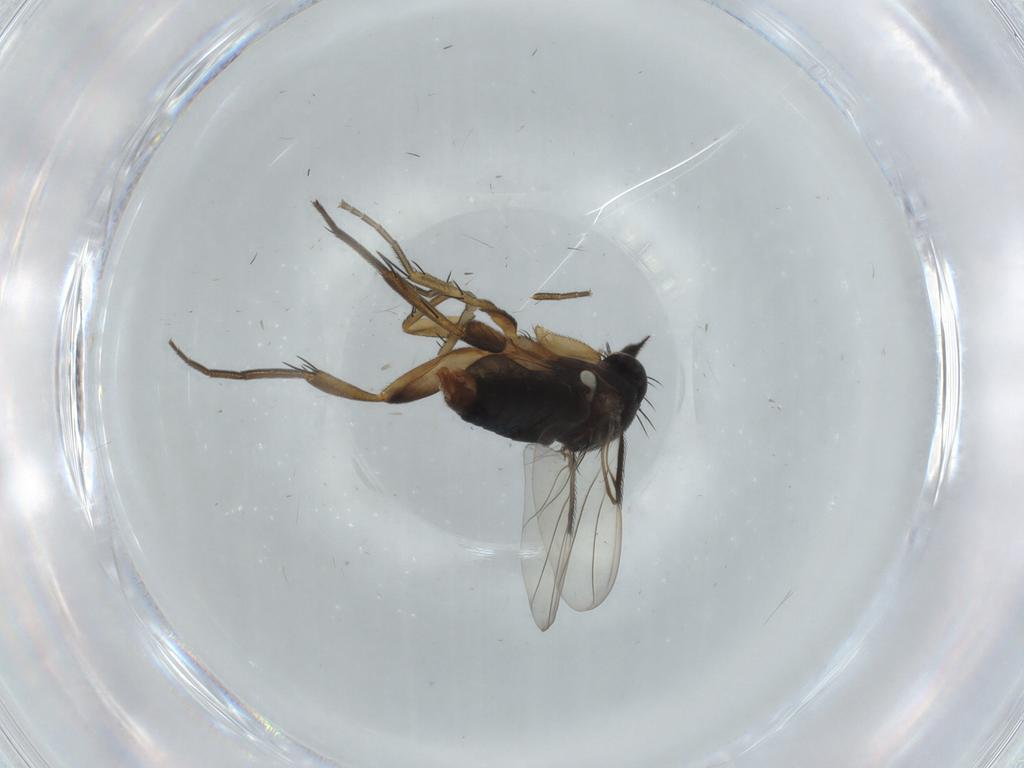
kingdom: Animalia
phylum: Arthropoda
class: Insecta
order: Diptera
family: Phoridae
